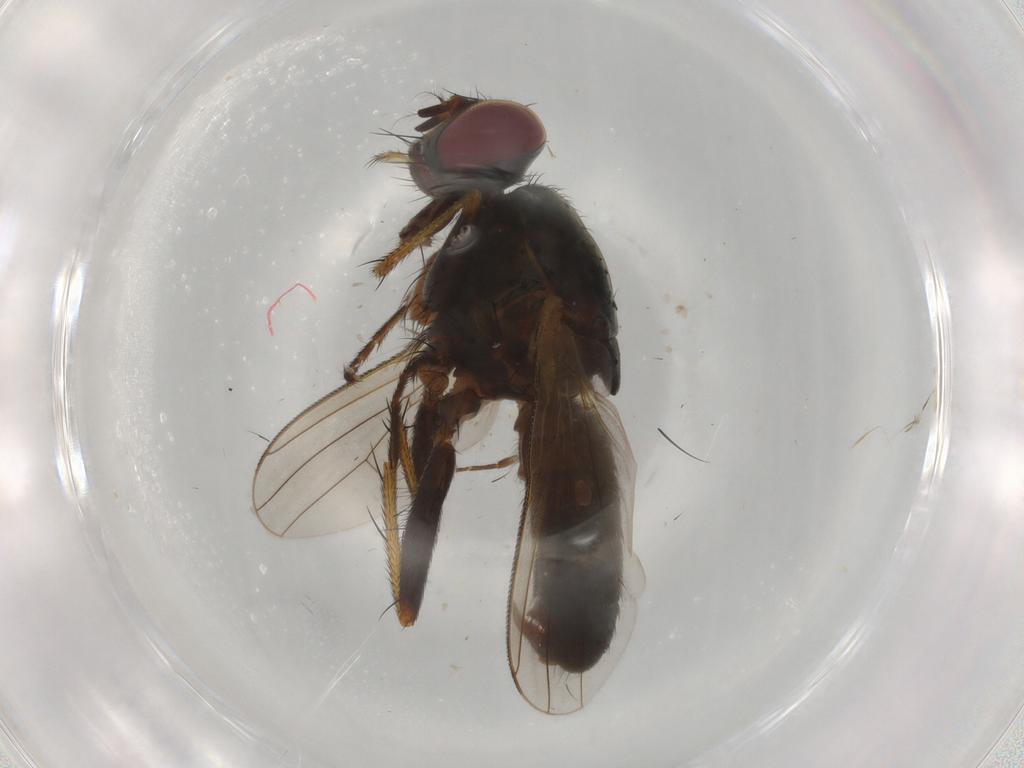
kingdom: Animalia
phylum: Arthropoda
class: Insecta
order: Diptera
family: Muscidae
